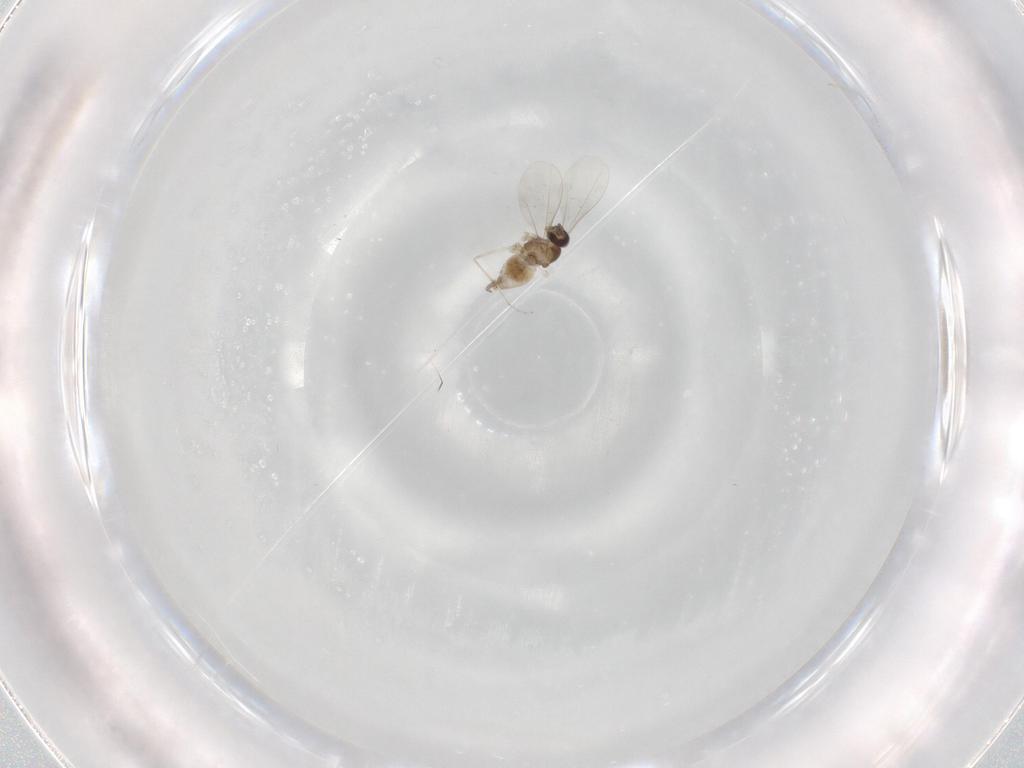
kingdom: Animalia
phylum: Arthropoda
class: Insecta
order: Diptera
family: Cecidomyiidae
